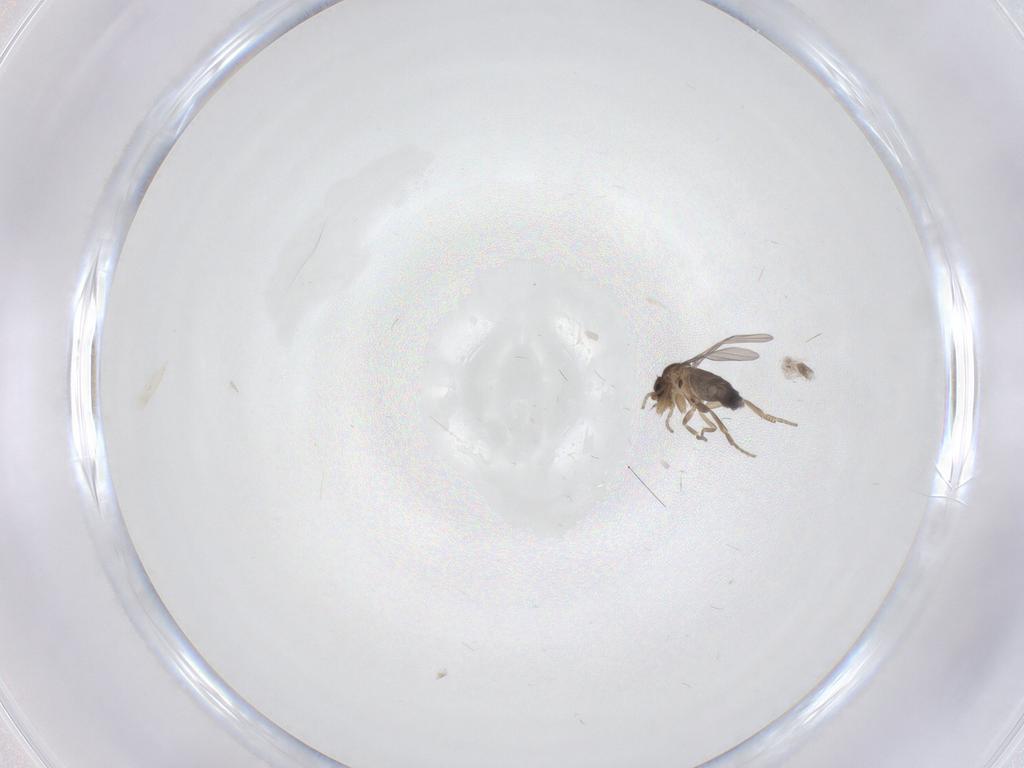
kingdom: Animalia
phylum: Arthropoda
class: Insecta
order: Diptera
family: Phoridae
